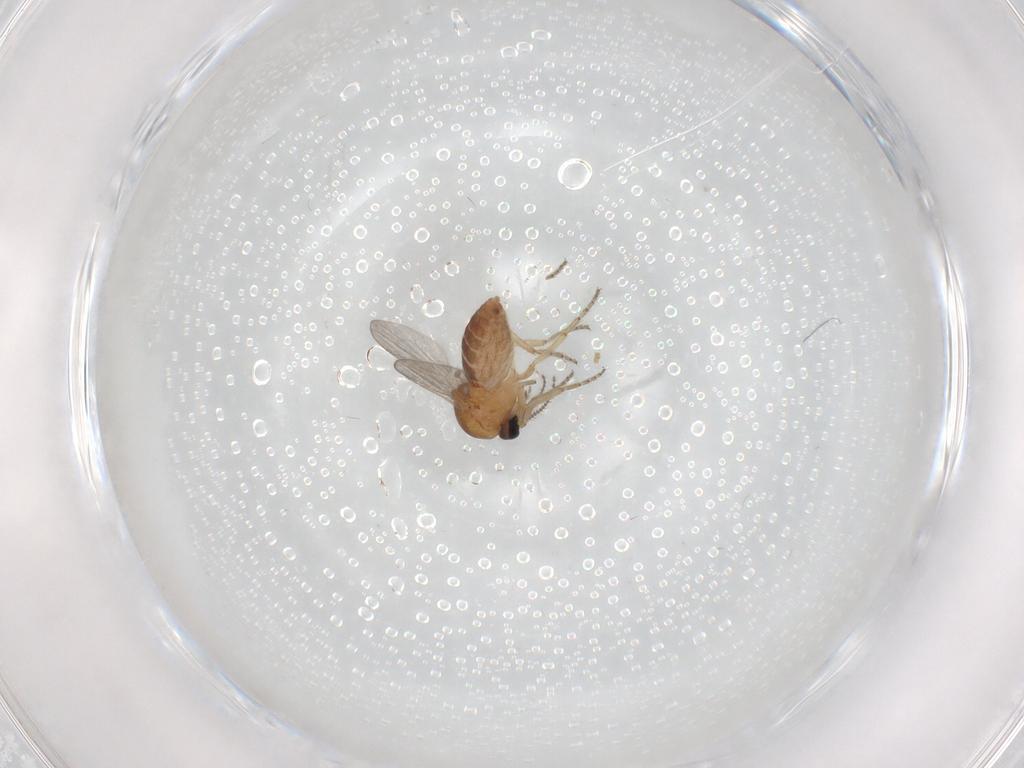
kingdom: Animalia
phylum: Arthropoda
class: Insecta
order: Diptera
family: Ceratopogonidae
